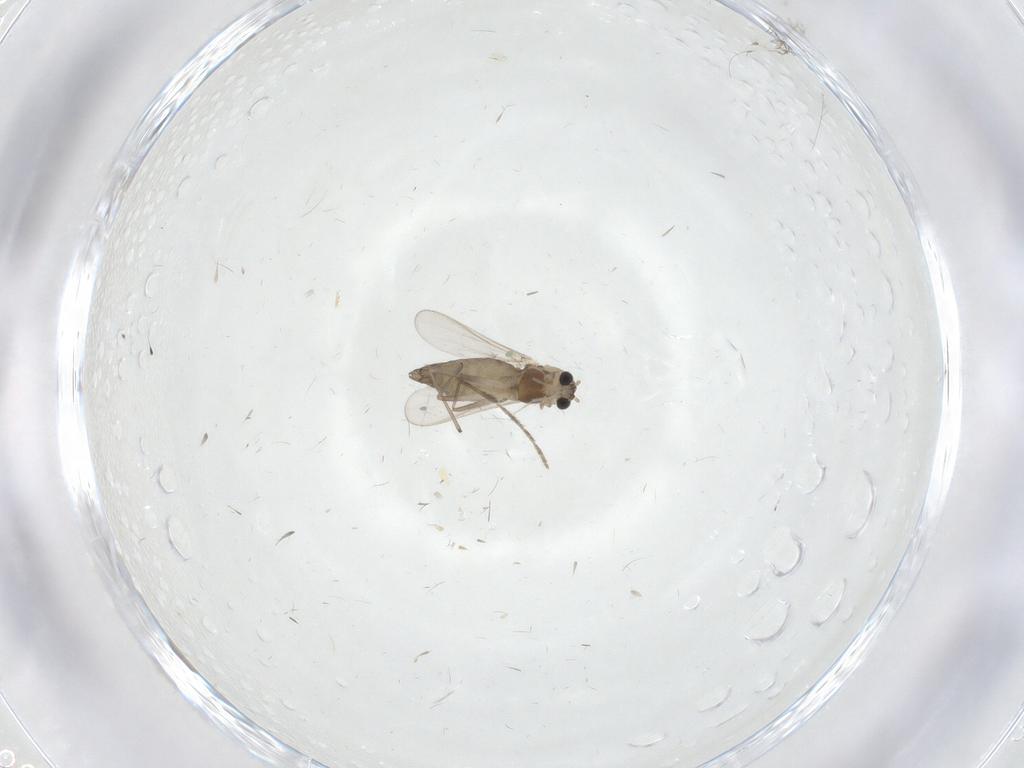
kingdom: Animalia
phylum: Arthropoda
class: Insecta
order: Diptera
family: Chironomidae
